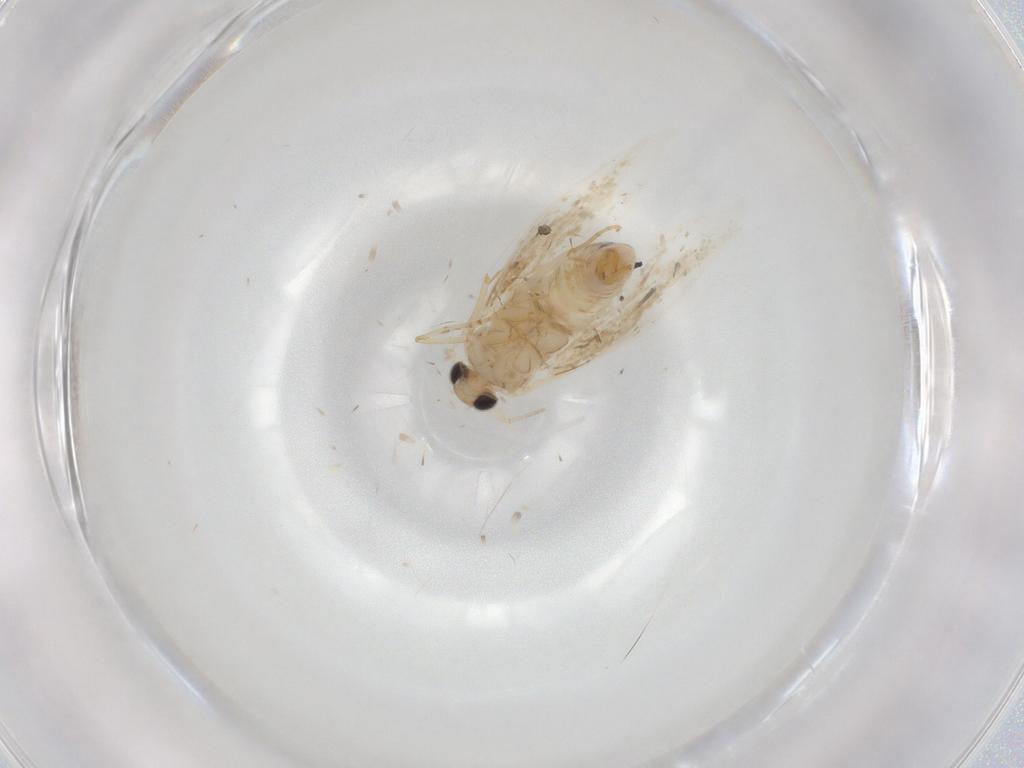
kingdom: Animalia
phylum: Arthropoda
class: Insecta
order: Lepidoptera
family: Bucculatricidae
